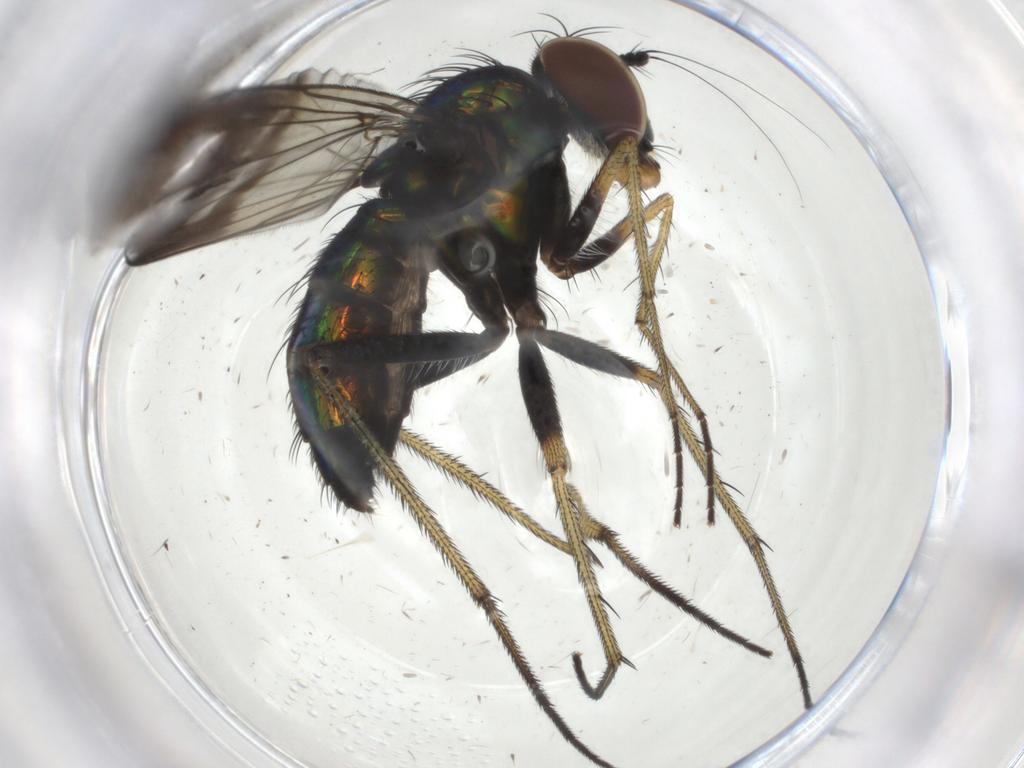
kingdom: Animalia
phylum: Arthropoda
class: Insecta
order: Diptera
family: Dolichopodidae
